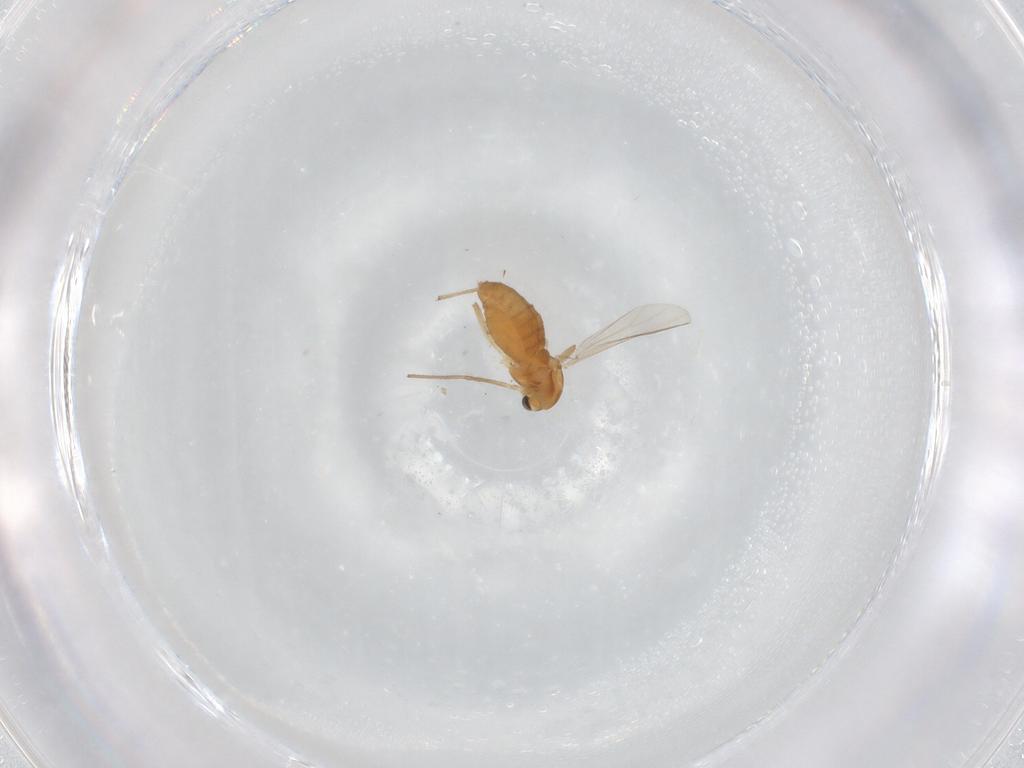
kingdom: Animalia
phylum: Arthropoda
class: Insecta
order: Diptera
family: Chironomidae
